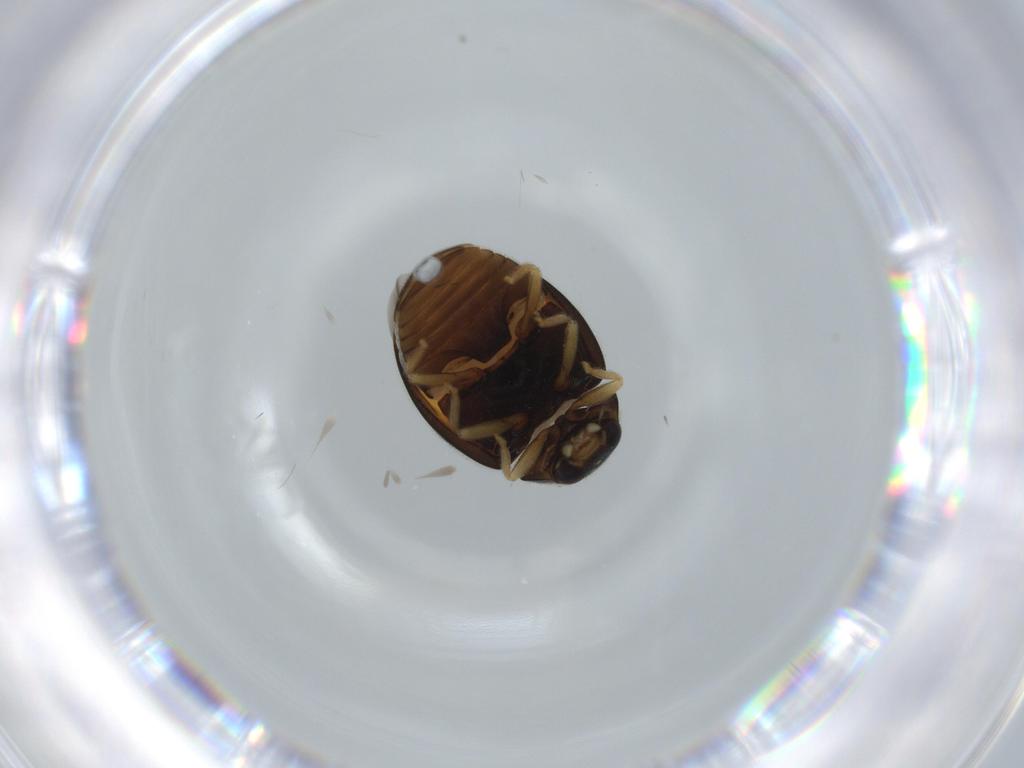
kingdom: Animalia
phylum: Arthropoda
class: Insecta
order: Coleoptera
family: Coccinellidae
